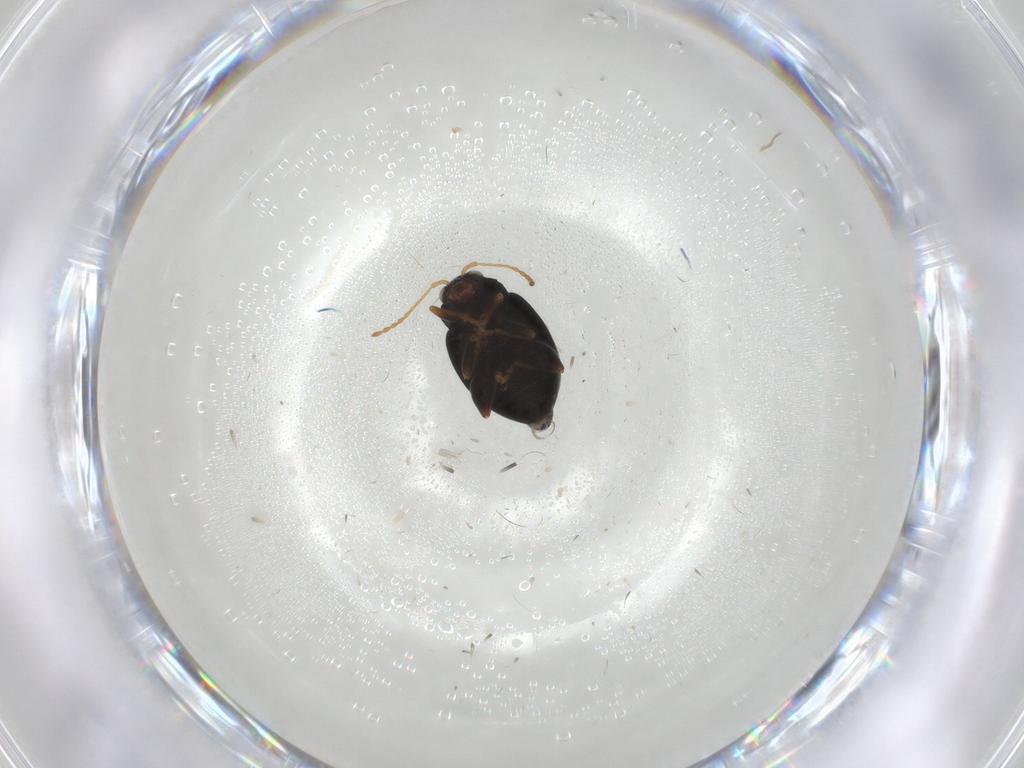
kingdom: Animalia
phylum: Arthropoda
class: Insecta
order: Coleoptera
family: Chrysomelidae
